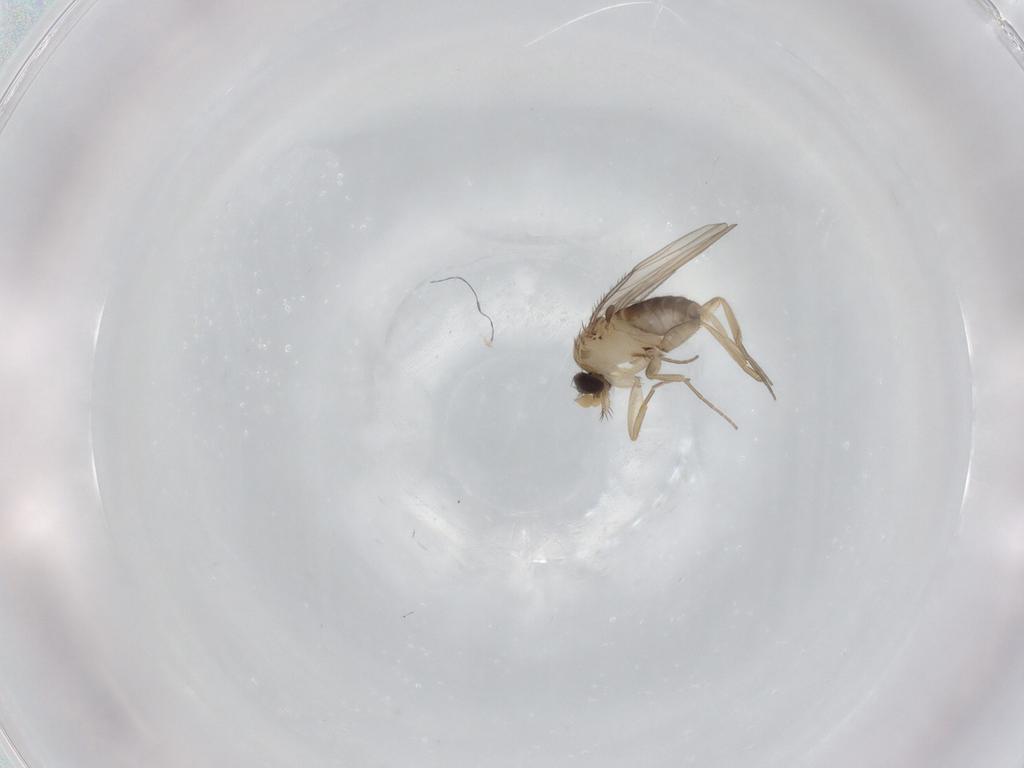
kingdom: Animalia
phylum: Arthropoda
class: Insecta
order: Diptera
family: Phoridae
